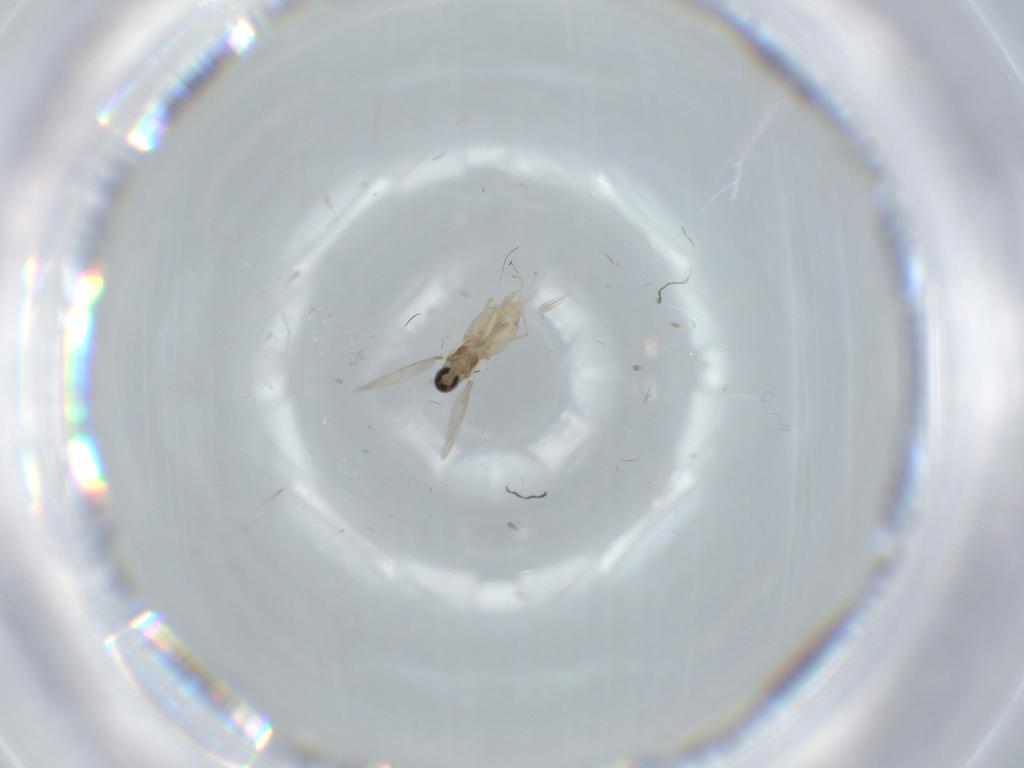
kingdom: Animalia
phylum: Arthropoda
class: Insecta
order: Diptera
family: Cecidomyiidae
